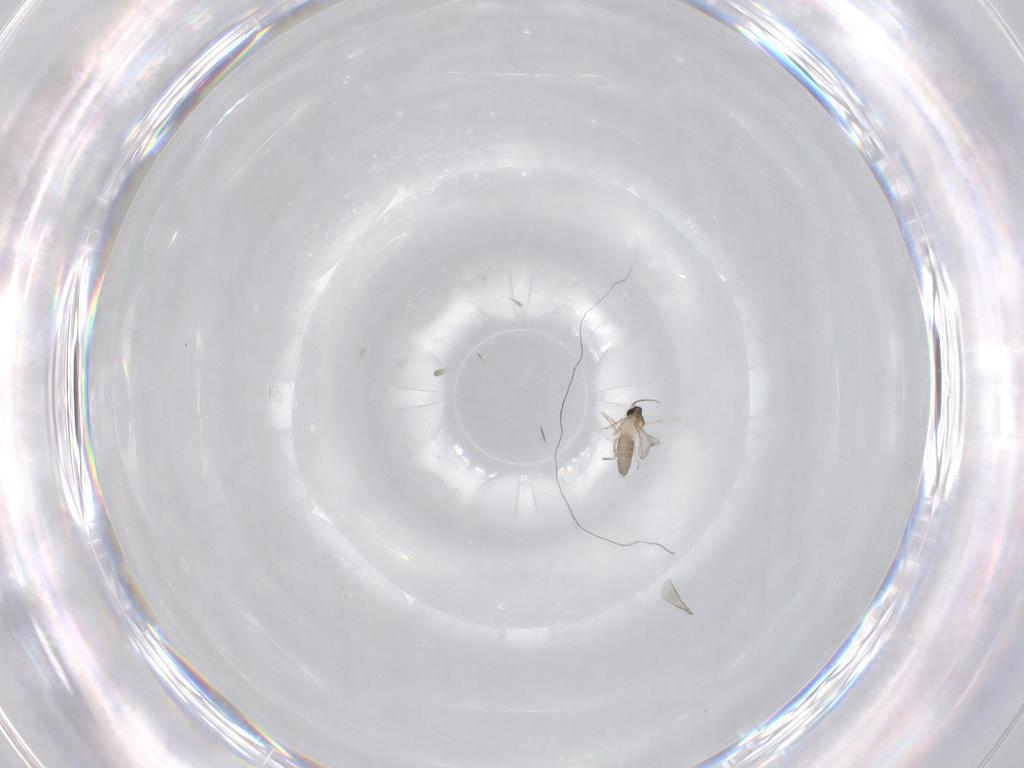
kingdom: Animalia
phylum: Arthropoda
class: Insecta
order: Diptera
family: Cecidomyiidae
